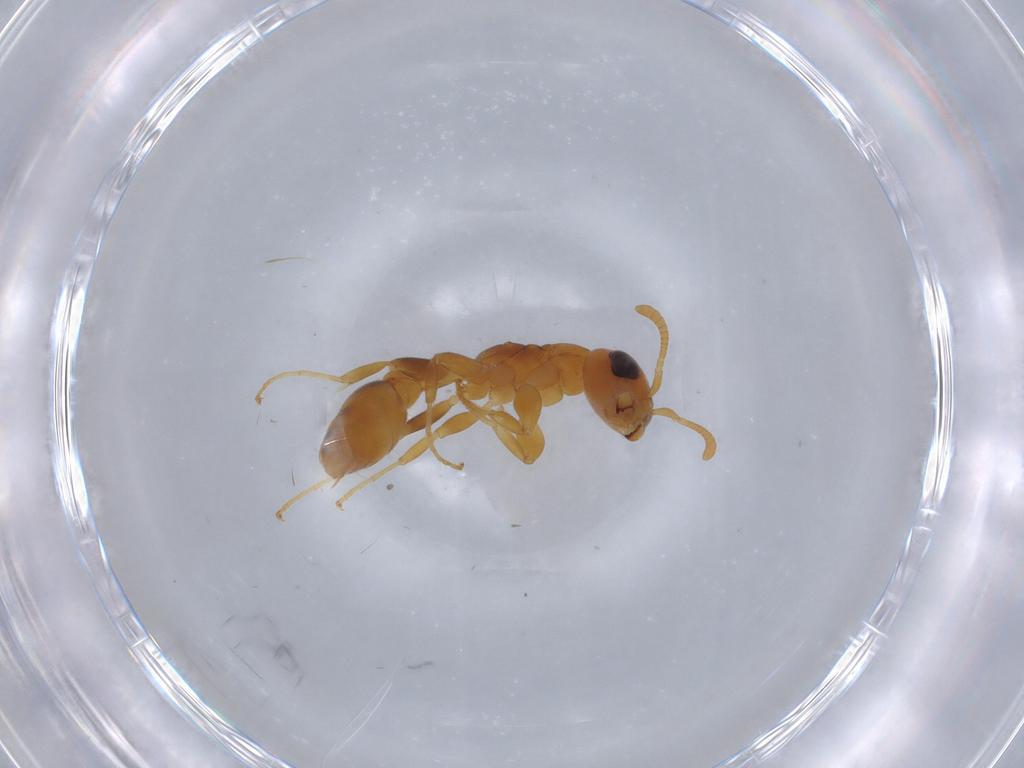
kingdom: Animalia
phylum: Arthropoda
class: Insecta
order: Hymenoptera
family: Formicidae
